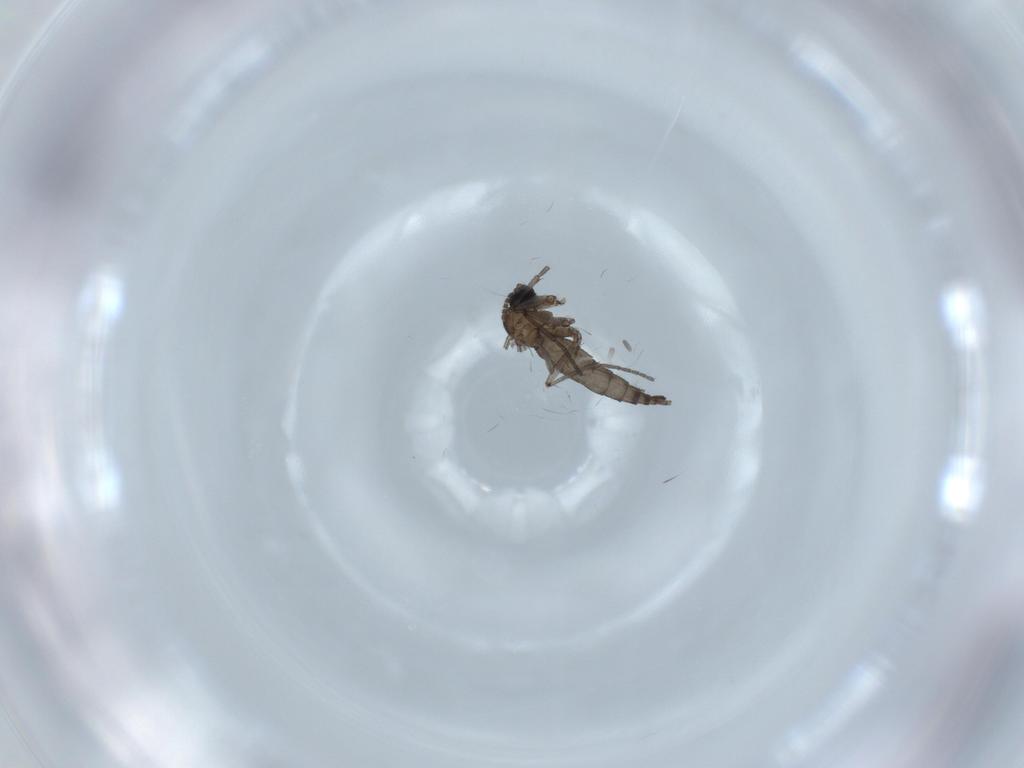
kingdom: Animalia
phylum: Arthropoda
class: Insecta
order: Diptera
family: Sciaridae
